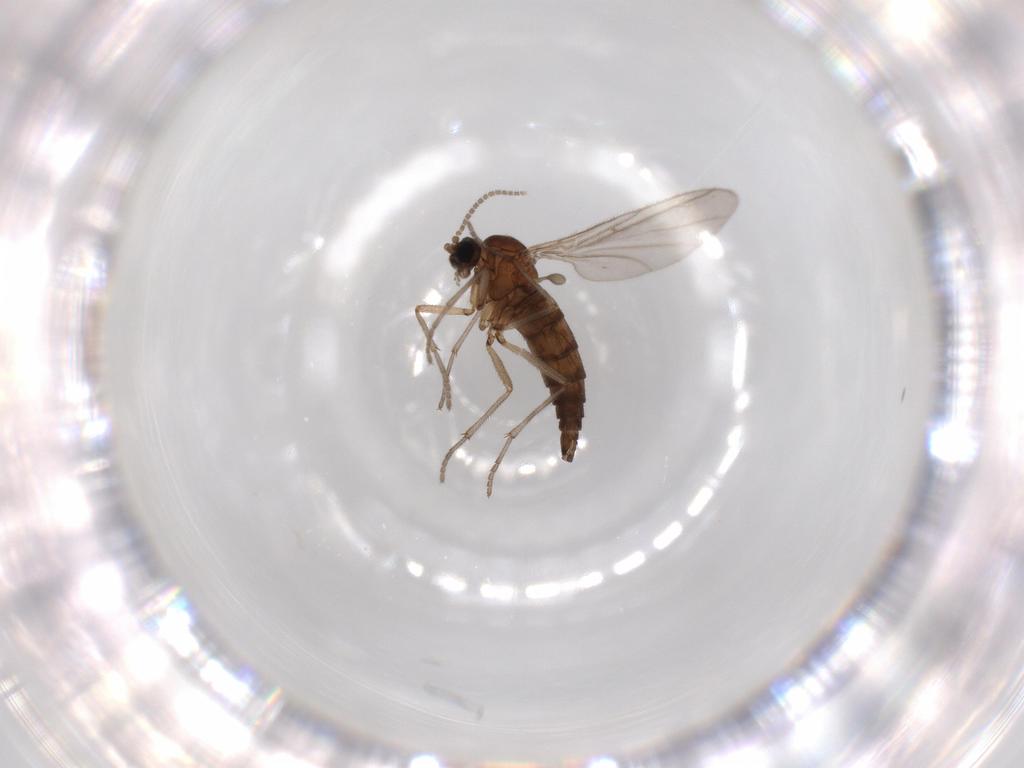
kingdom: Animalia
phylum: Arthropoda
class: Insecta
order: Diptera
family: Sciaridae
